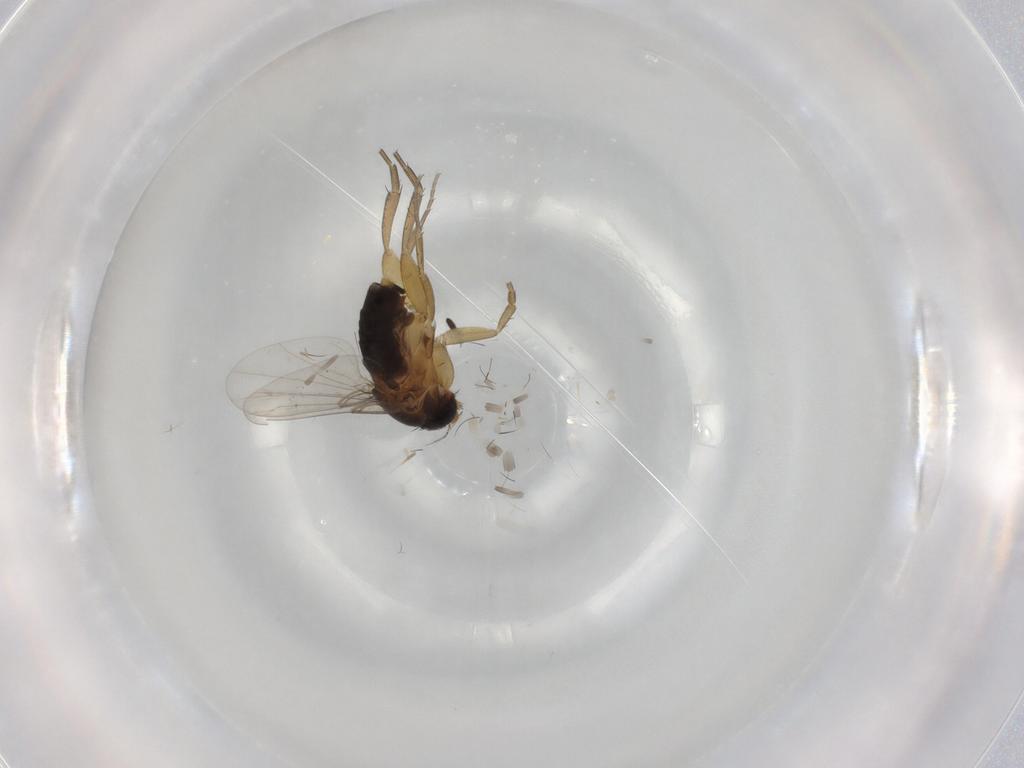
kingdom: Animalia
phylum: Arthropoda
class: Insecta
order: Diptera
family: Phoridae
